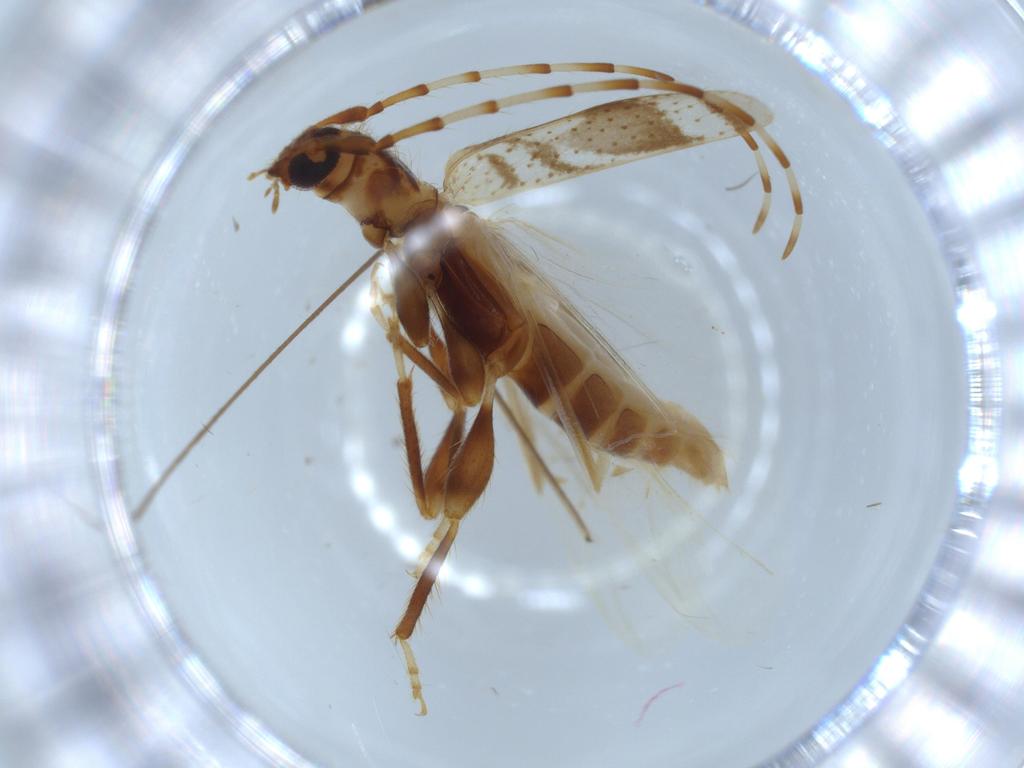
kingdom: Animalia
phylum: Arthropoda
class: Insecta
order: Coleoptera
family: Cerambycidae
